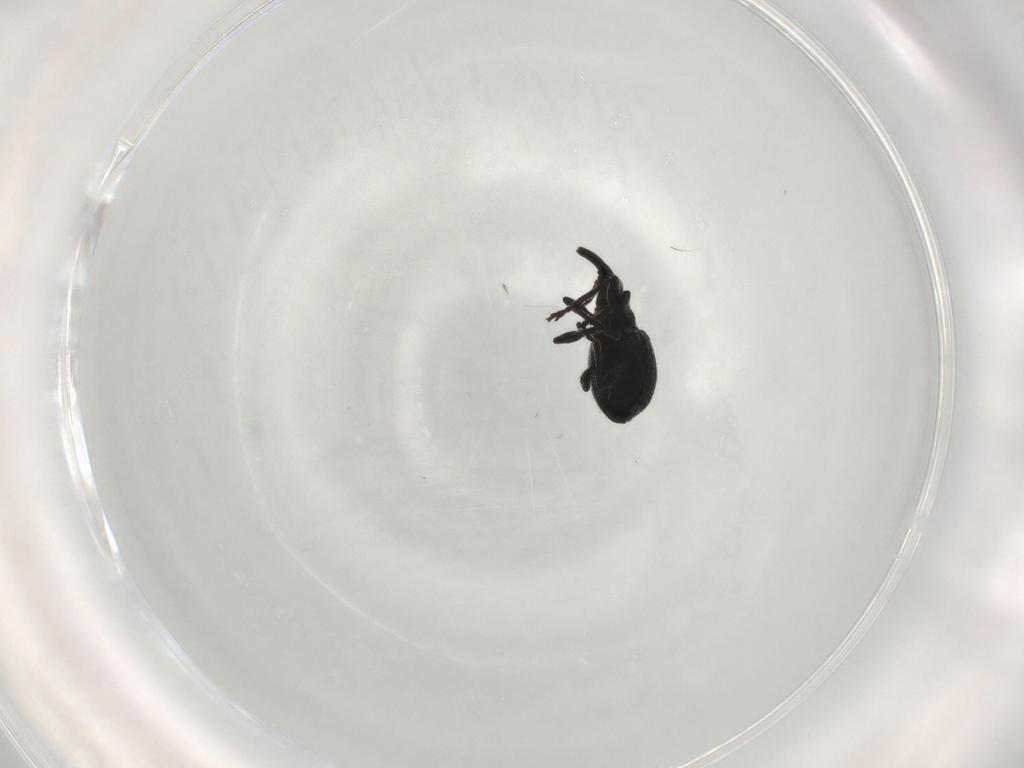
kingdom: Animalia
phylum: Arthropoda
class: Insecta
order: Coleoptera
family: Brentidae
